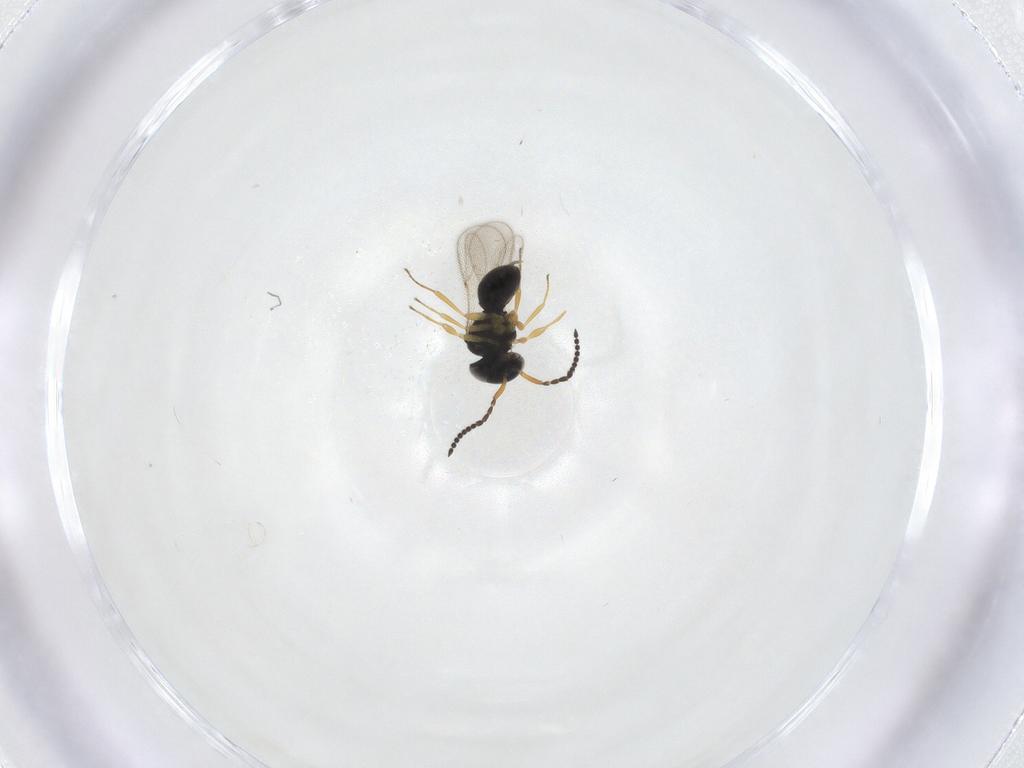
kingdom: Animalia
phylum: Arthropoda
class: Insecta
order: Hymenoptera
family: Scelionidae
